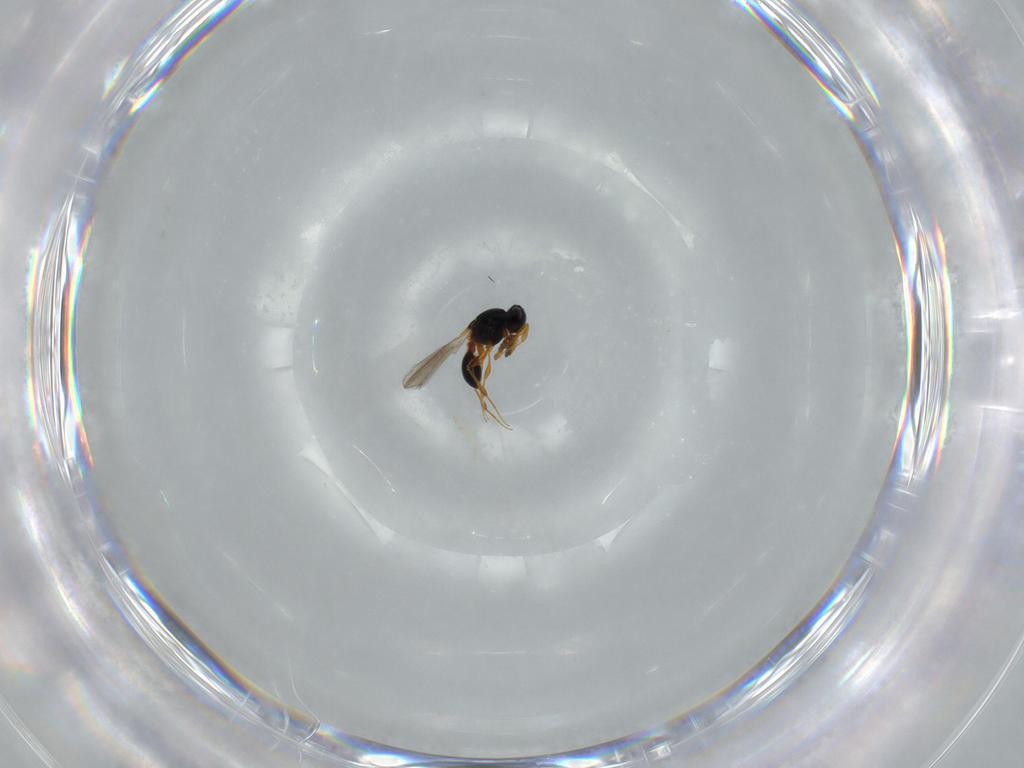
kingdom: Animalia
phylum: Arthropoda
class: Insecta
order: Hymenoptera
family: Platygastridae
